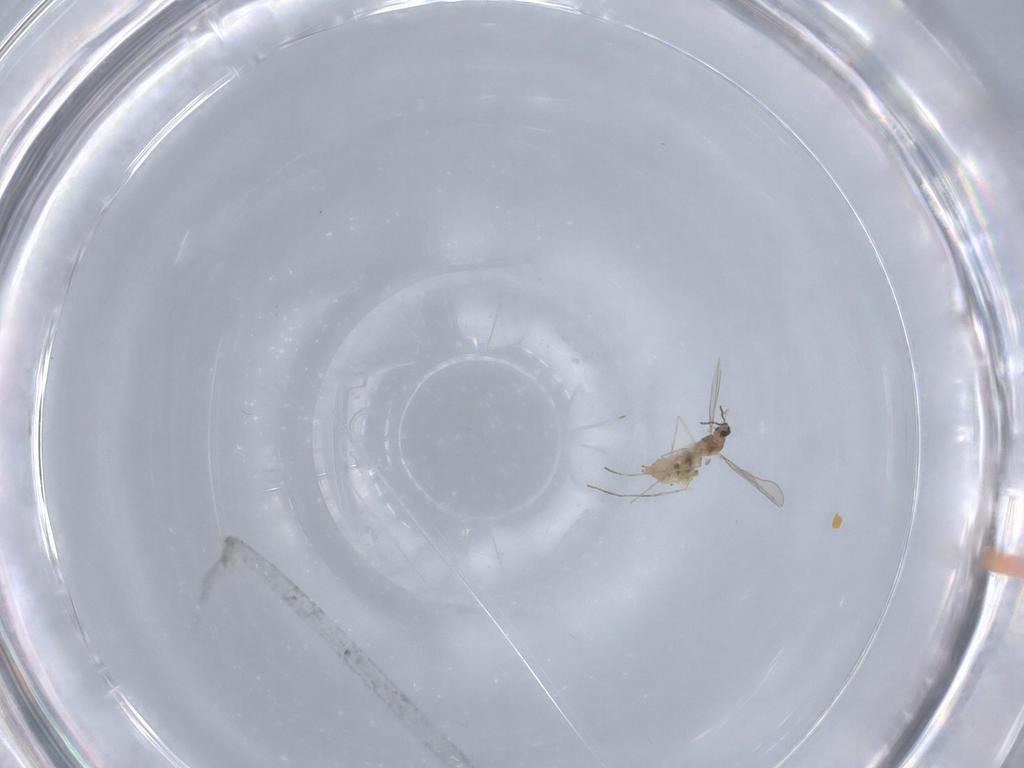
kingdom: Animalia
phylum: Arthropoda
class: Insecta
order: Diptera
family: Cecidomyiidae
